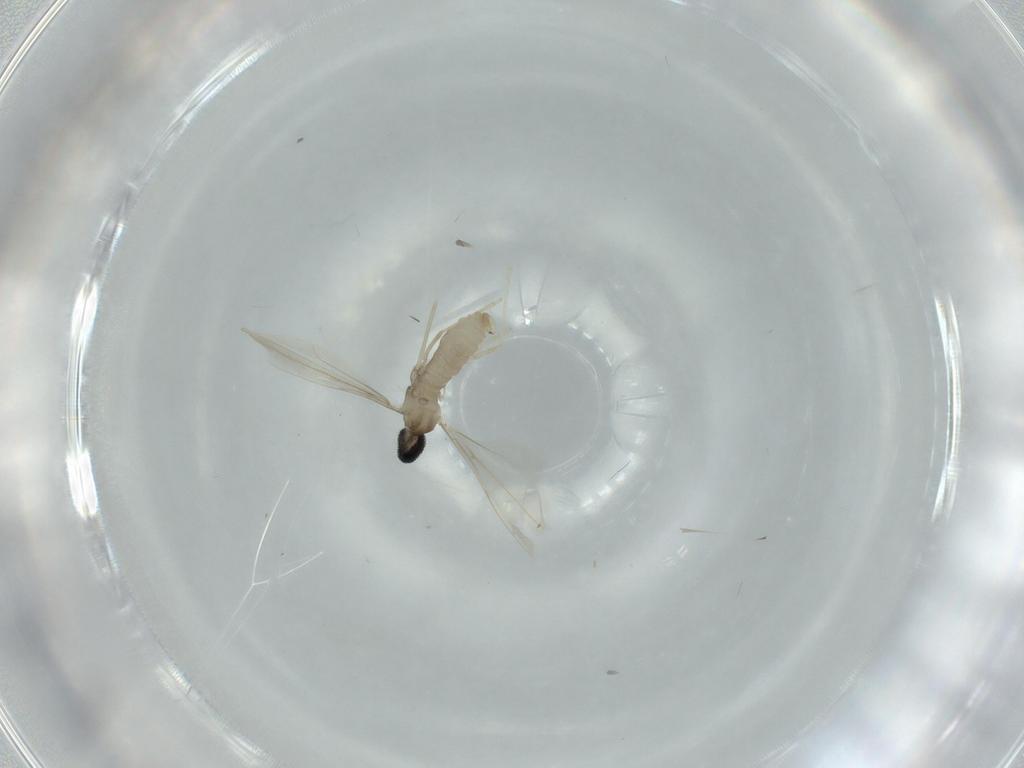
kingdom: Animalia
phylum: Arthropoda
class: Insecta
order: Diptera
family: Cecidomyiidae
